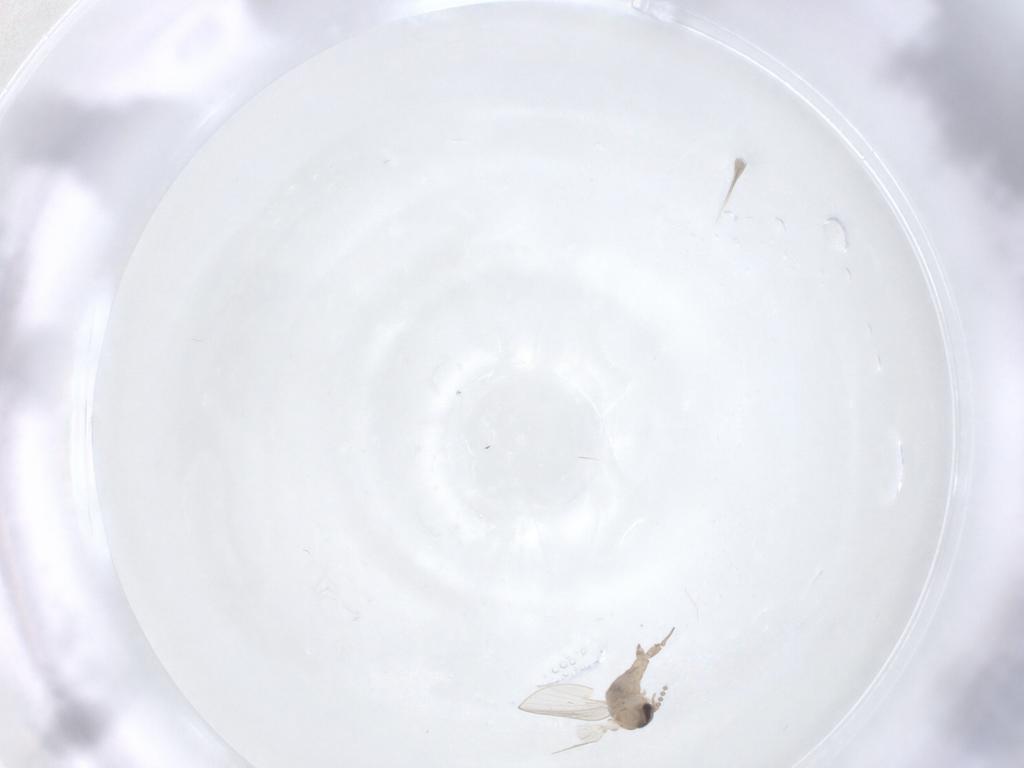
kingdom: Animalia
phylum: Arthropoda
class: Insecta
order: Diptera
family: Psychodidae
